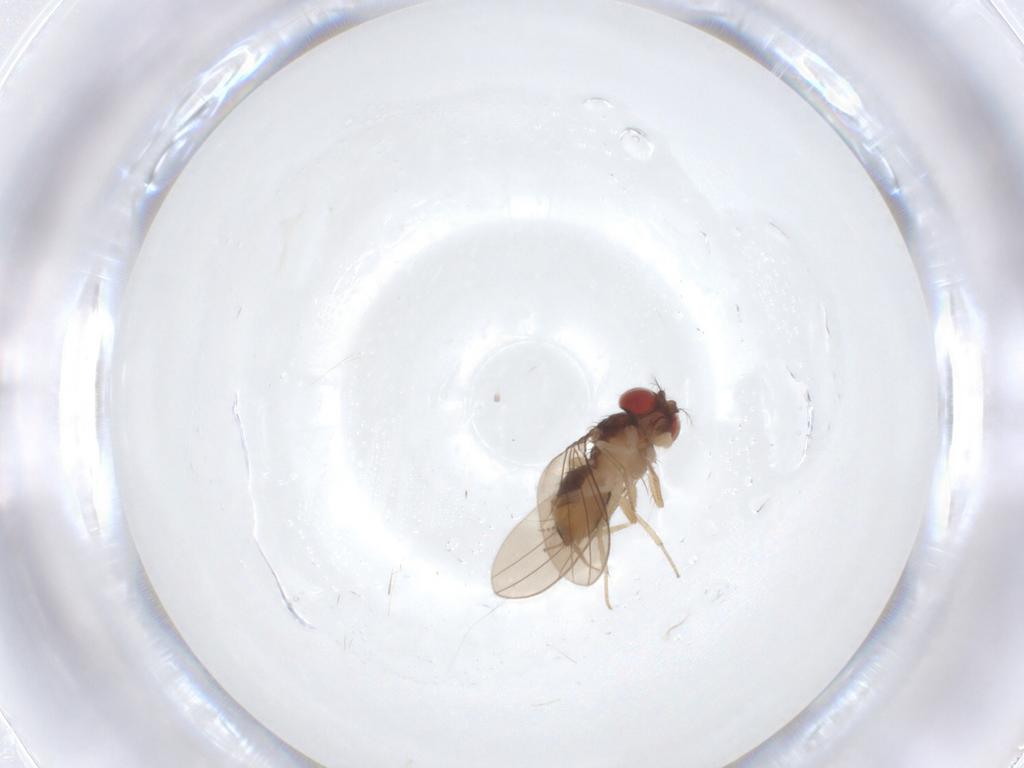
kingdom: Animalia
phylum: Arthropoda
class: Insecta
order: Diptera
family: Drosophilidae
